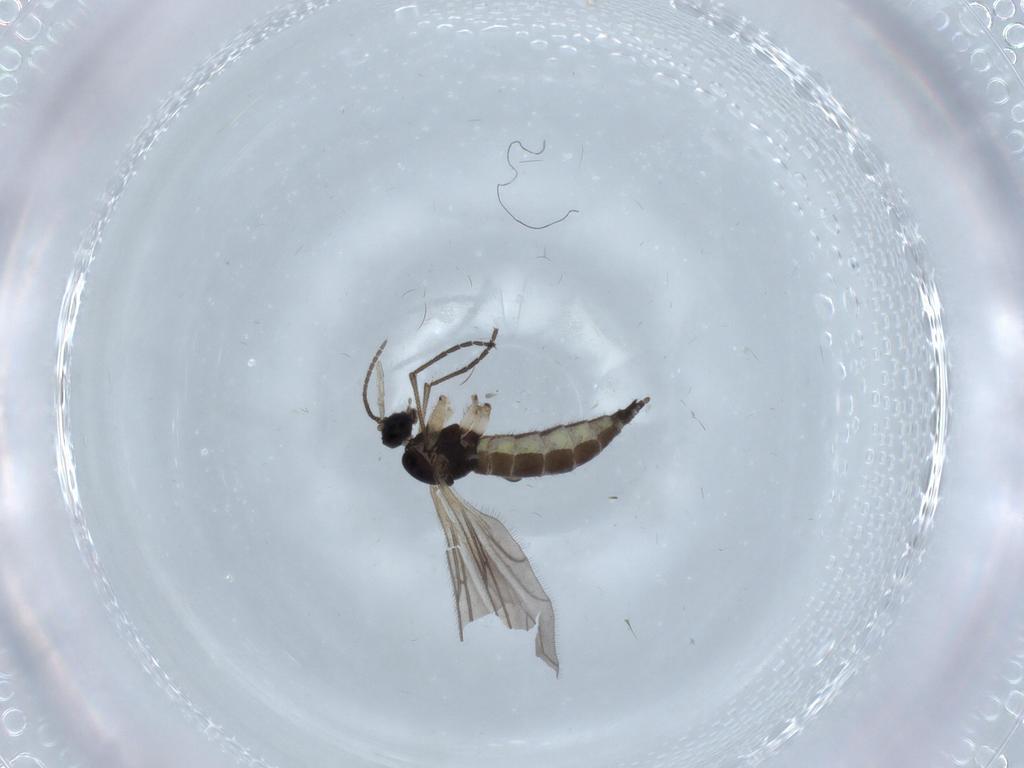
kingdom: Animalia
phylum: Arthropoda
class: Insecta
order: Diptera
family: Sciaridae
